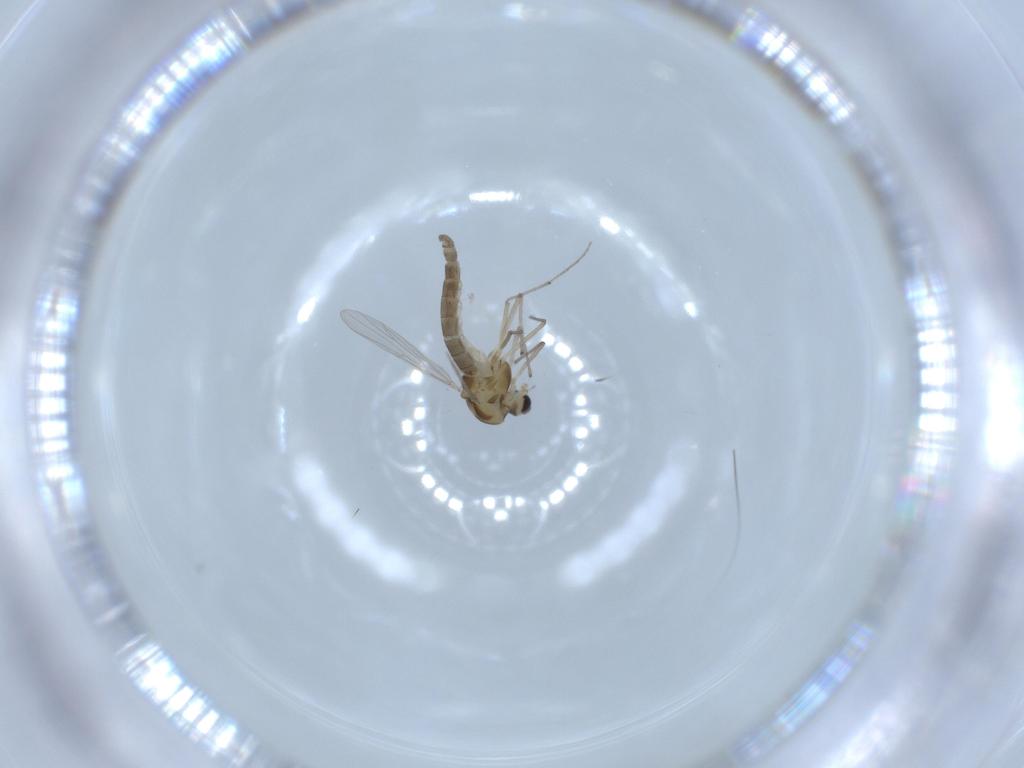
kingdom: Animalia
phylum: Arthropoda
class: Insecta
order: Diptera
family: Chironomidae
